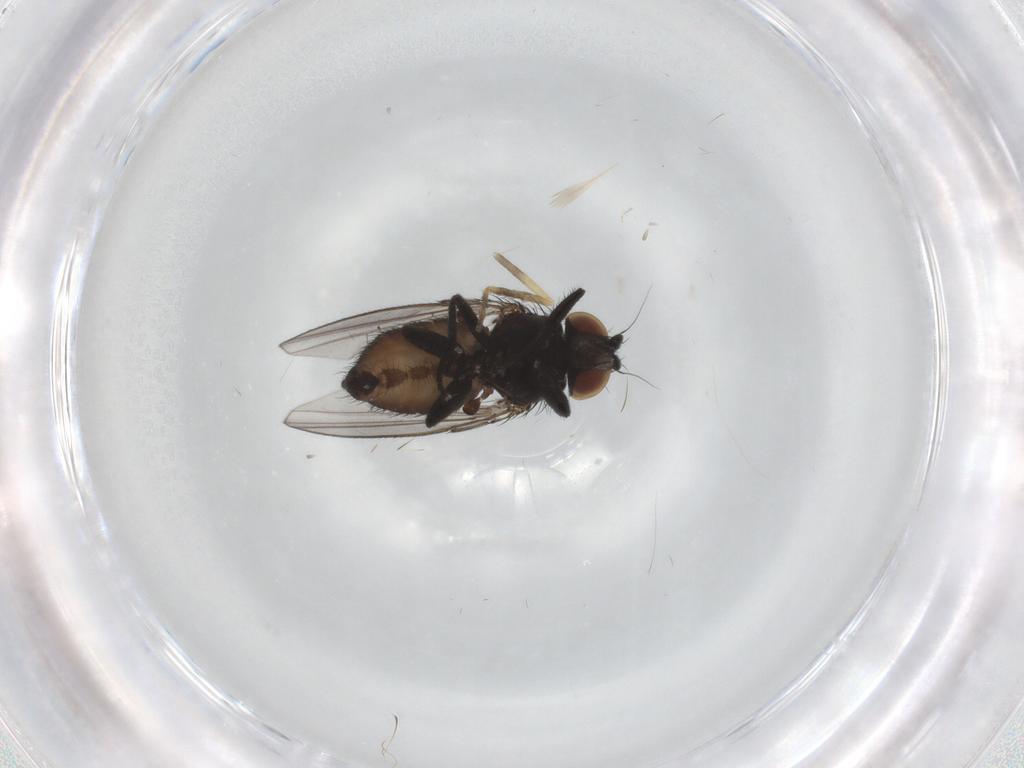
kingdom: Animalia
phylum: Arthropoda
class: Insecta
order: Diptera
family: Milichiidae
